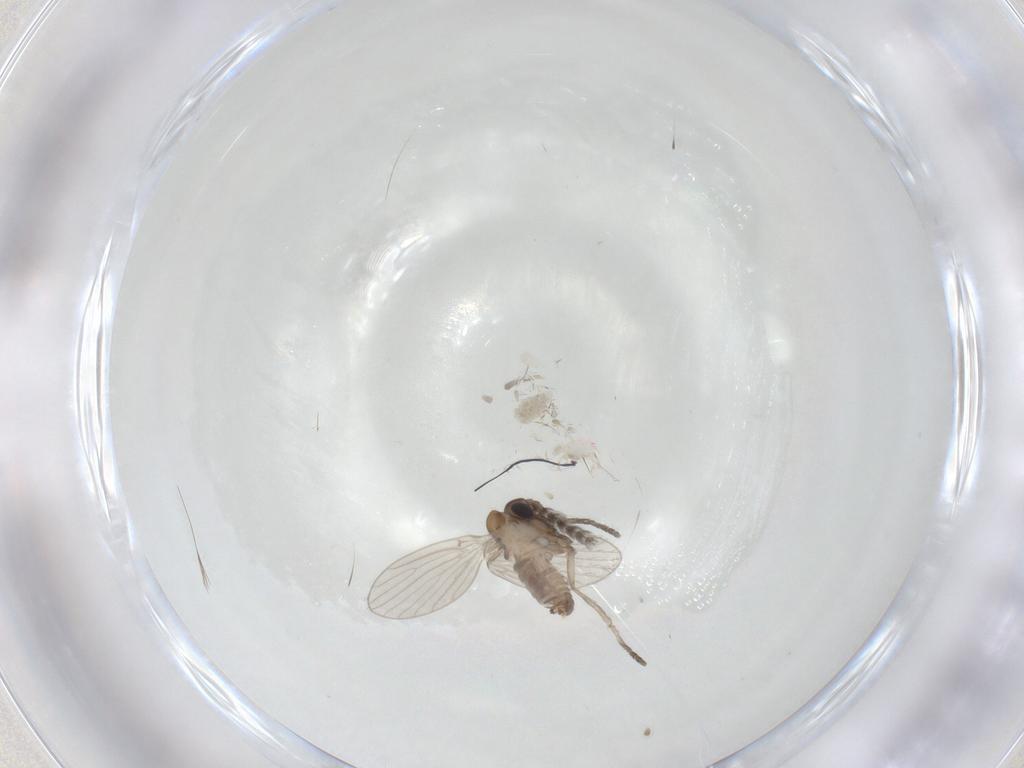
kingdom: Animalia
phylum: Arthropoda
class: Insecta
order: Diptera
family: Psychodidae
